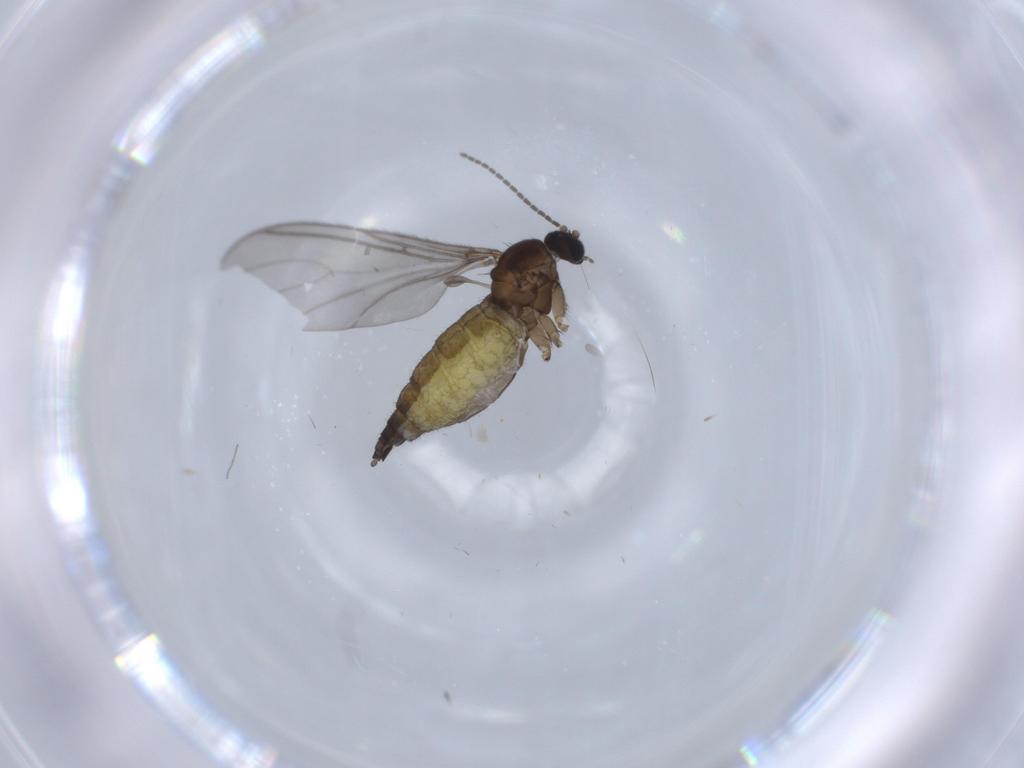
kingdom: Animalia
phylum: Arthropoda
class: Insecta
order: Diptera
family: Sciaridae
